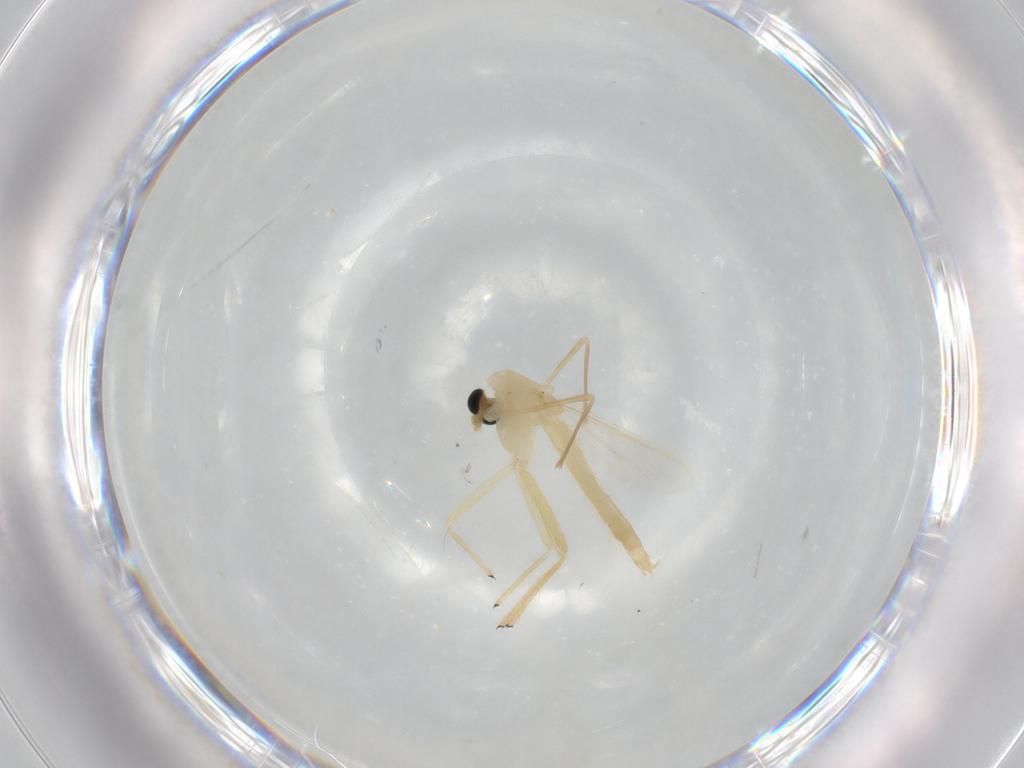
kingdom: Animalia
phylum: Arthropoda
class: Insecta
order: Diptera
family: Chironomidae
